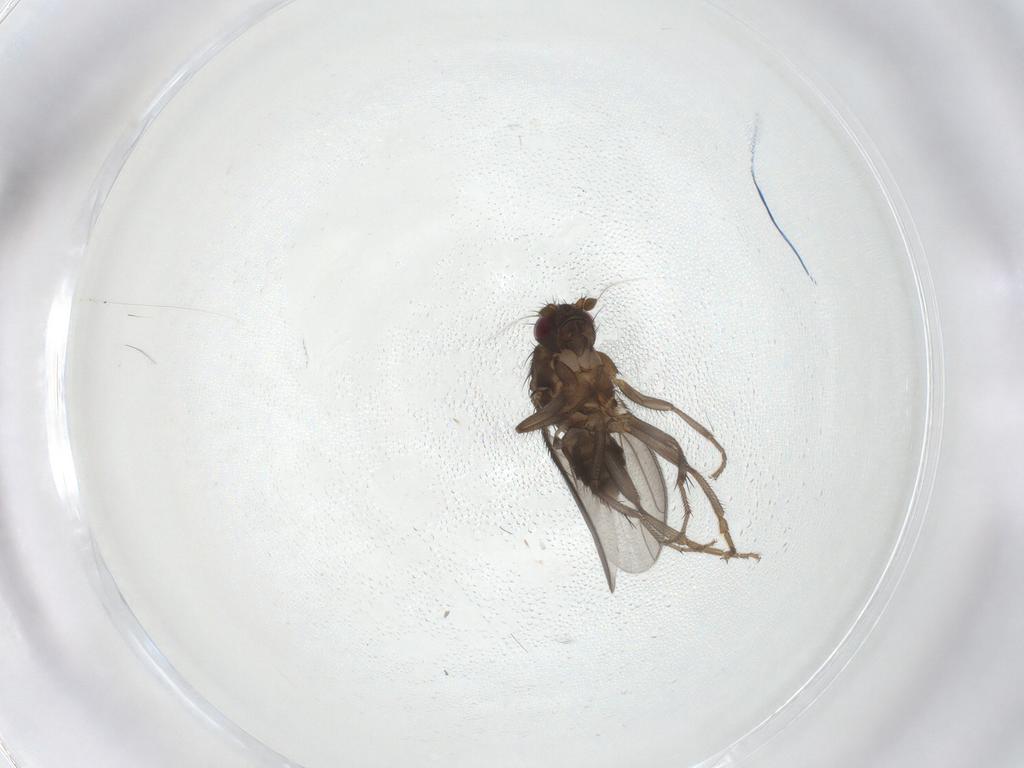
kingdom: Animalia
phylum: Arthropoda
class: Insecta
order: Diptera
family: Sphaeroceridae
